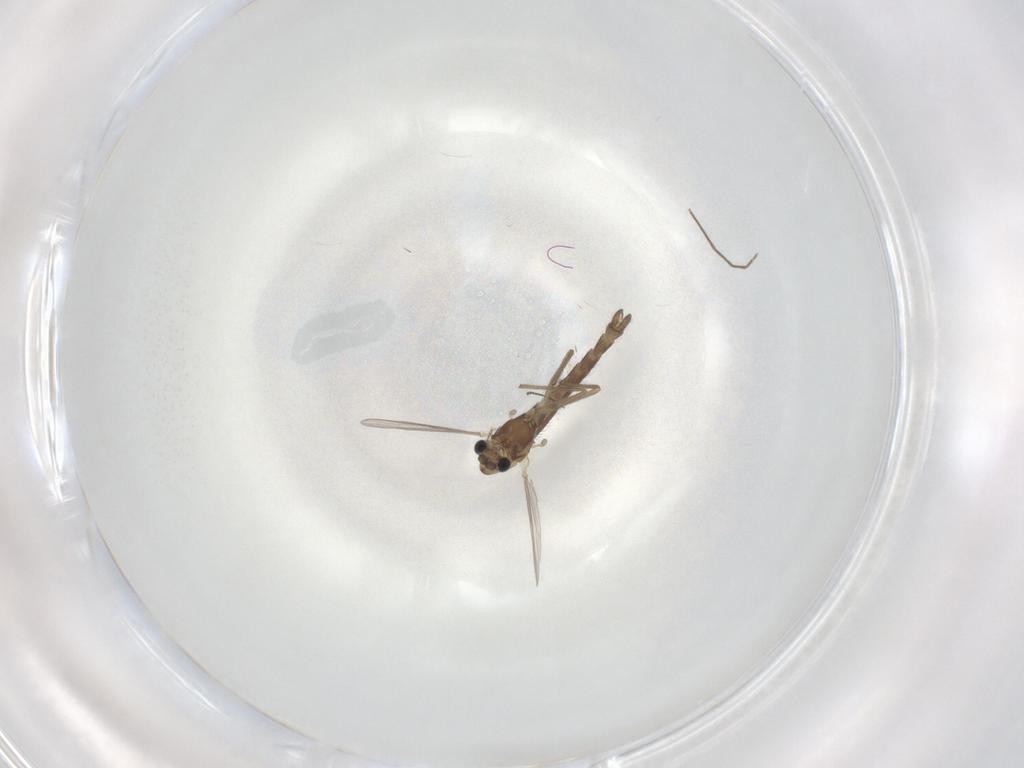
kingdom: Animalia
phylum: Arthropoda
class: Insecta
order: Diptera
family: Chironomidae
